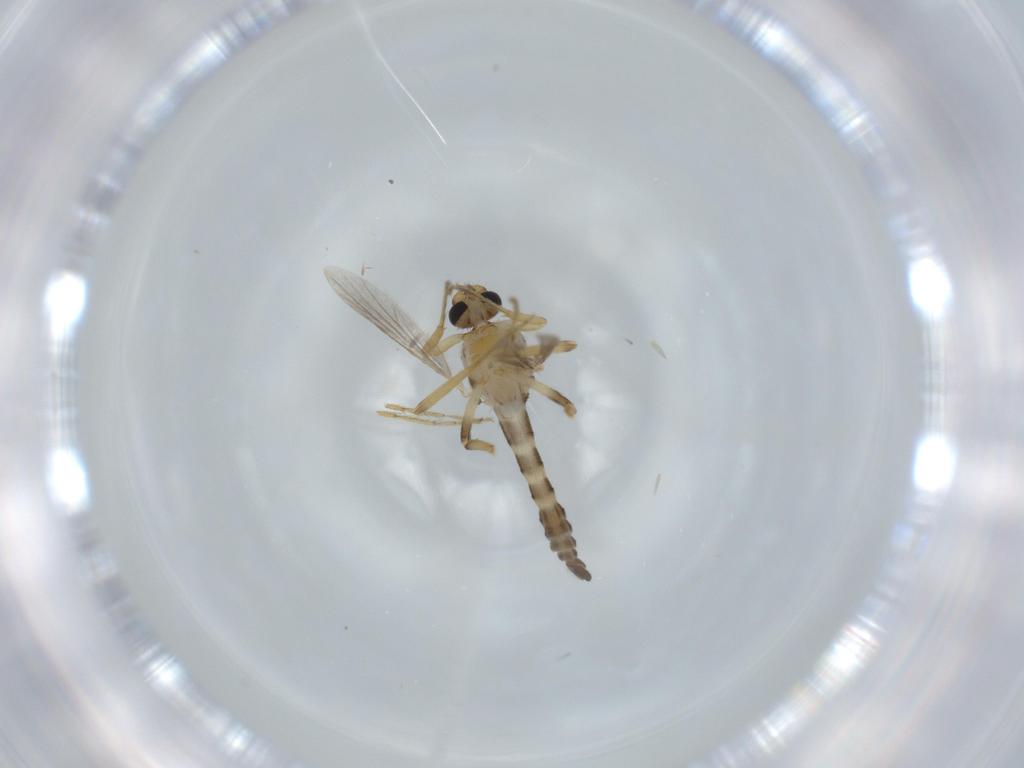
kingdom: Animalia
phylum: Arthropoda
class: Insecta
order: Diptera
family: Ceratopogonidae
